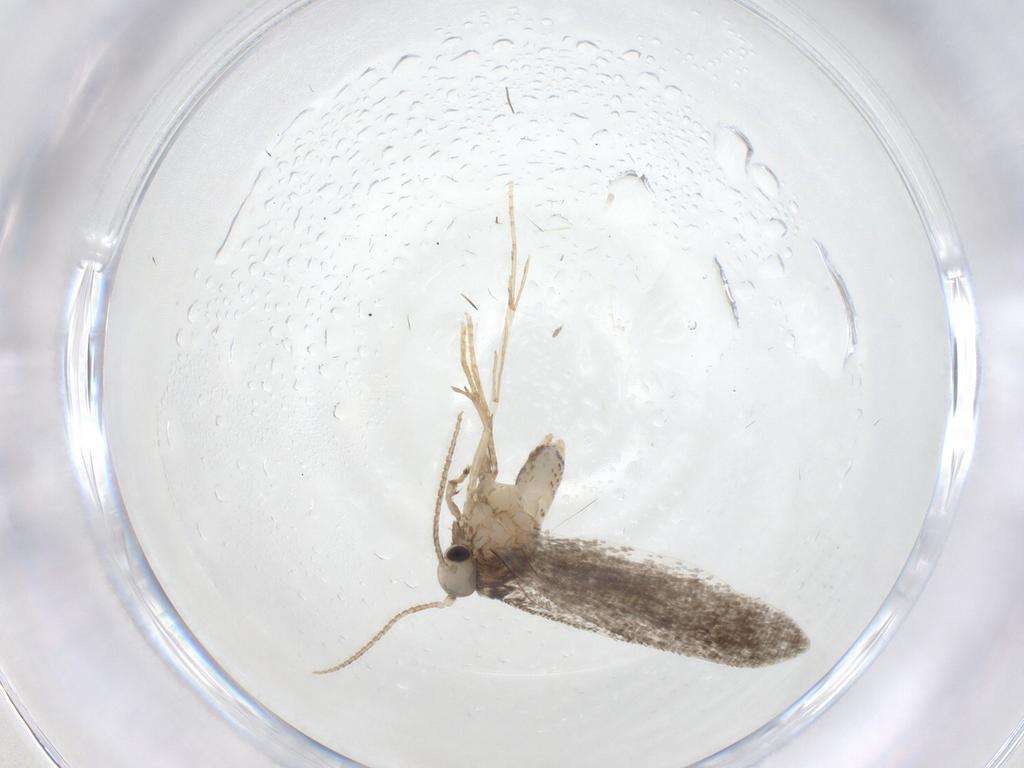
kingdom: Animalia
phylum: Arthropoda
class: Insecta
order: Lepidoptera
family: Psychidae
